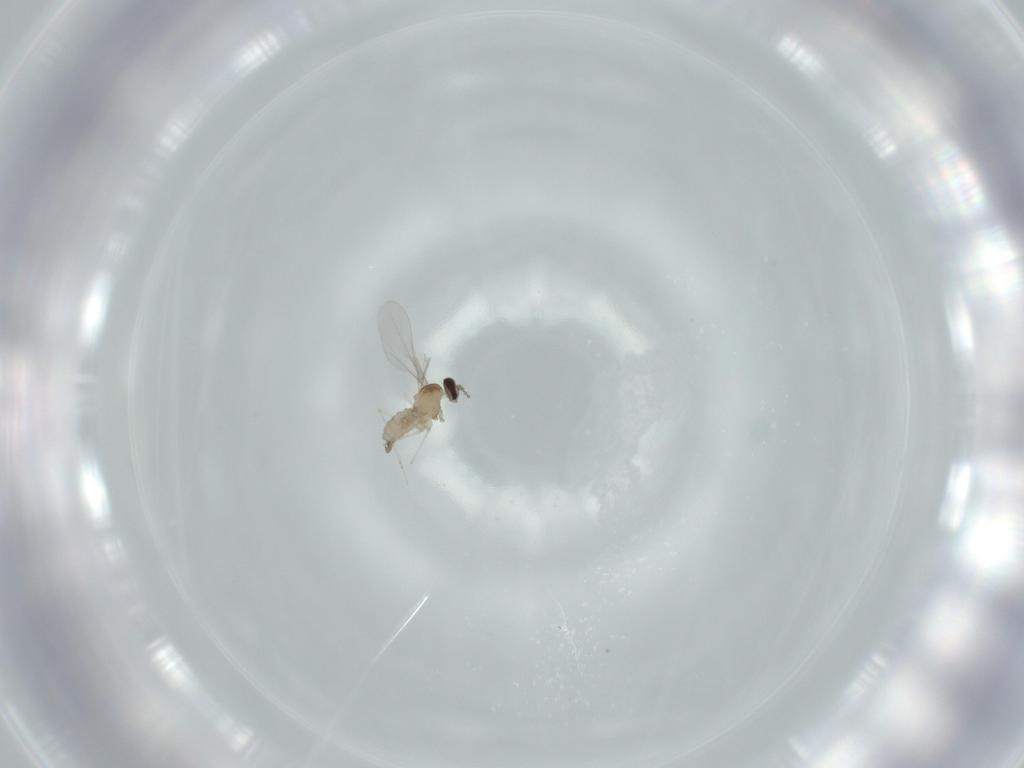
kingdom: Animalia
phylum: Arthropoda
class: Insecta
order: Diptera
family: Cecidomyiidae
